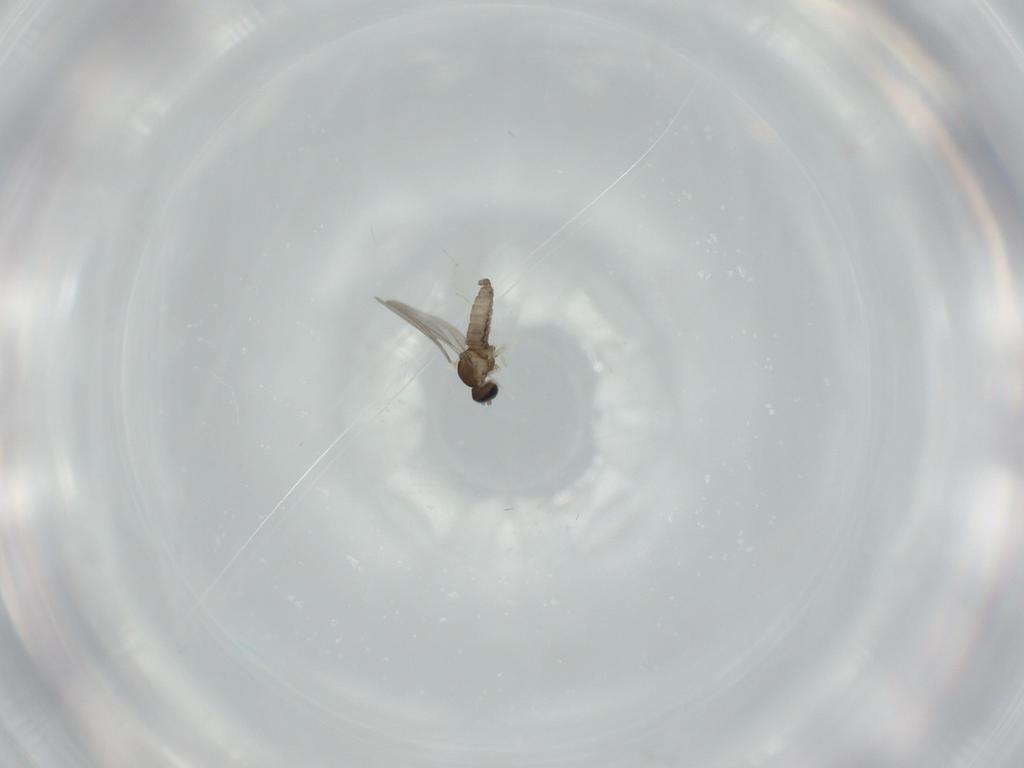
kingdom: Animalia
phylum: Arthropoda
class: Insecta
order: Diptera
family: Cecidomyiidae
